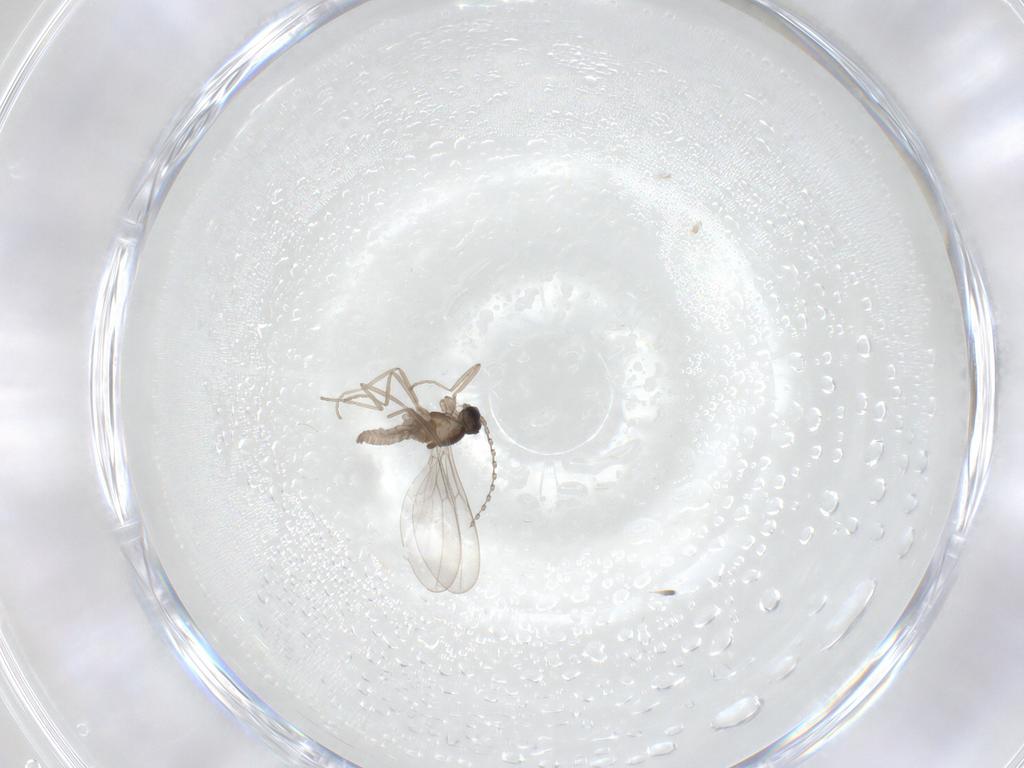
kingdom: Animalia
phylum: Arthropoda
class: Insecta
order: Diptera
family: Cecidomyiidae
